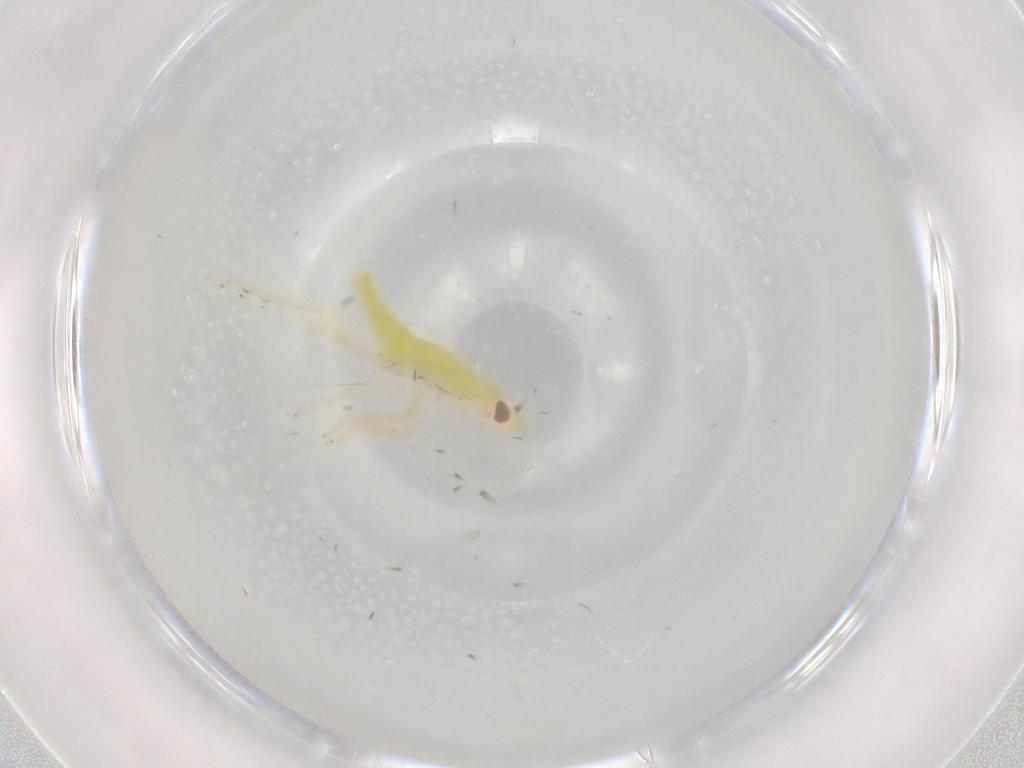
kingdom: Animalia
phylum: Arthropoda
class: Insecta
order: Hemiptera
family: Fulgoroidea_incertae_sedis
